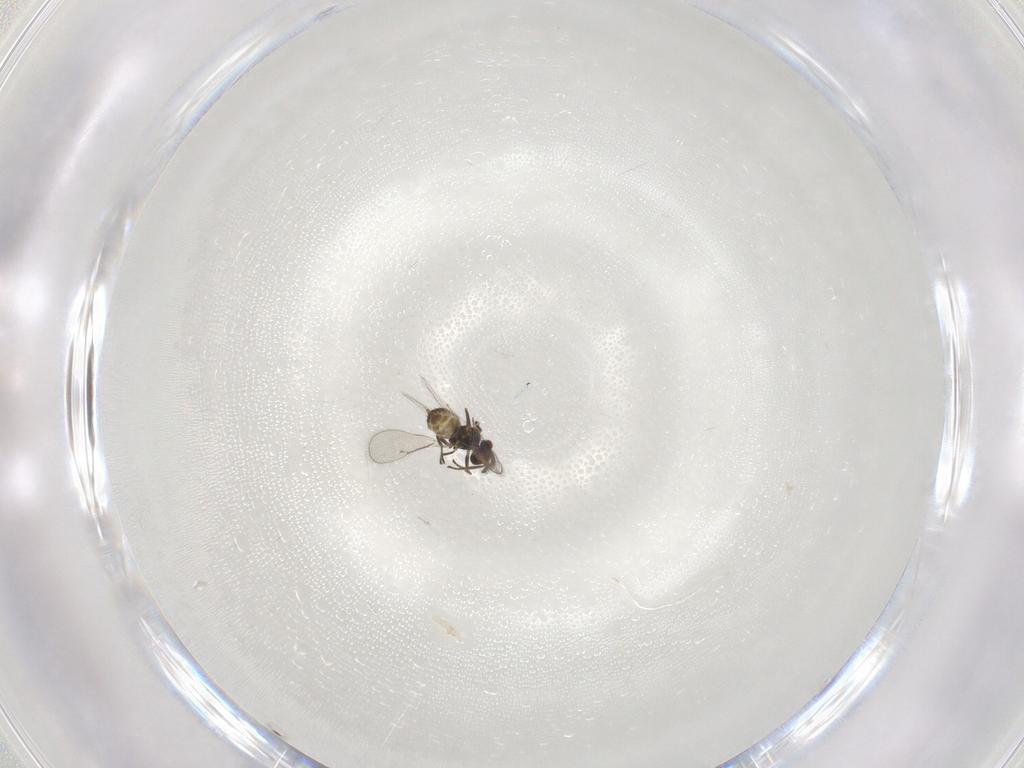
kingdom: Animalia
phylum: Arthropoda
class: Insecta
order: Hymenoptera
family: Eulophidae
